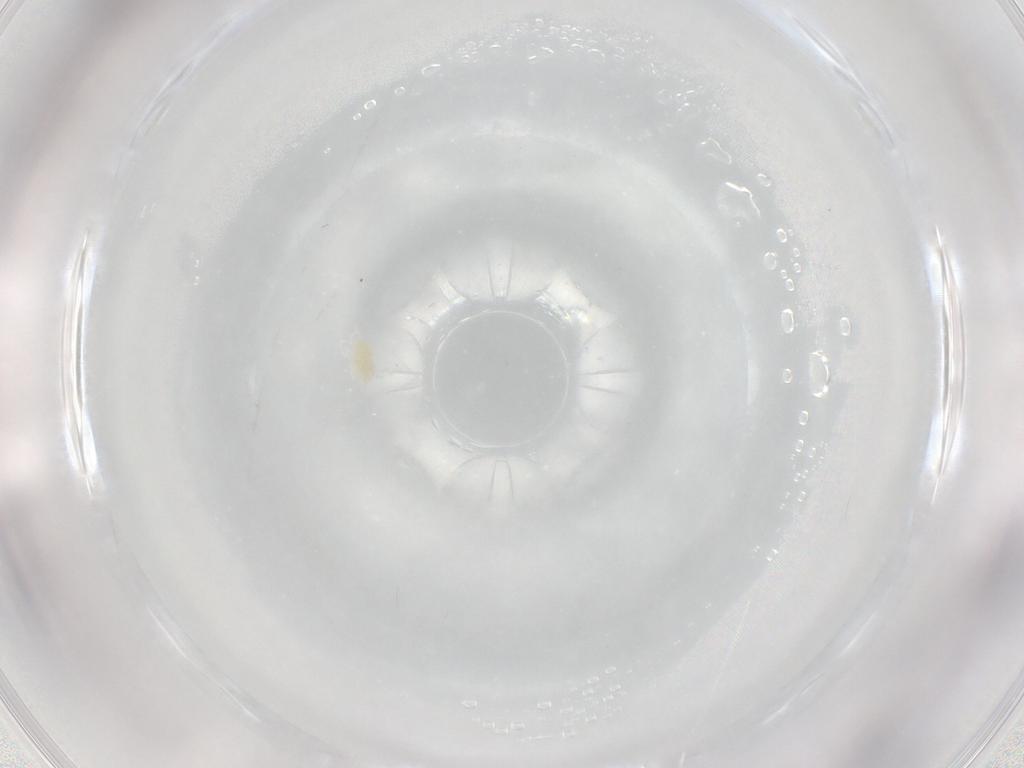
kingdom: Animalia
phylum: Arthropoda
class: Arachnida
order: Trombidiformes
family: Eupodidae
